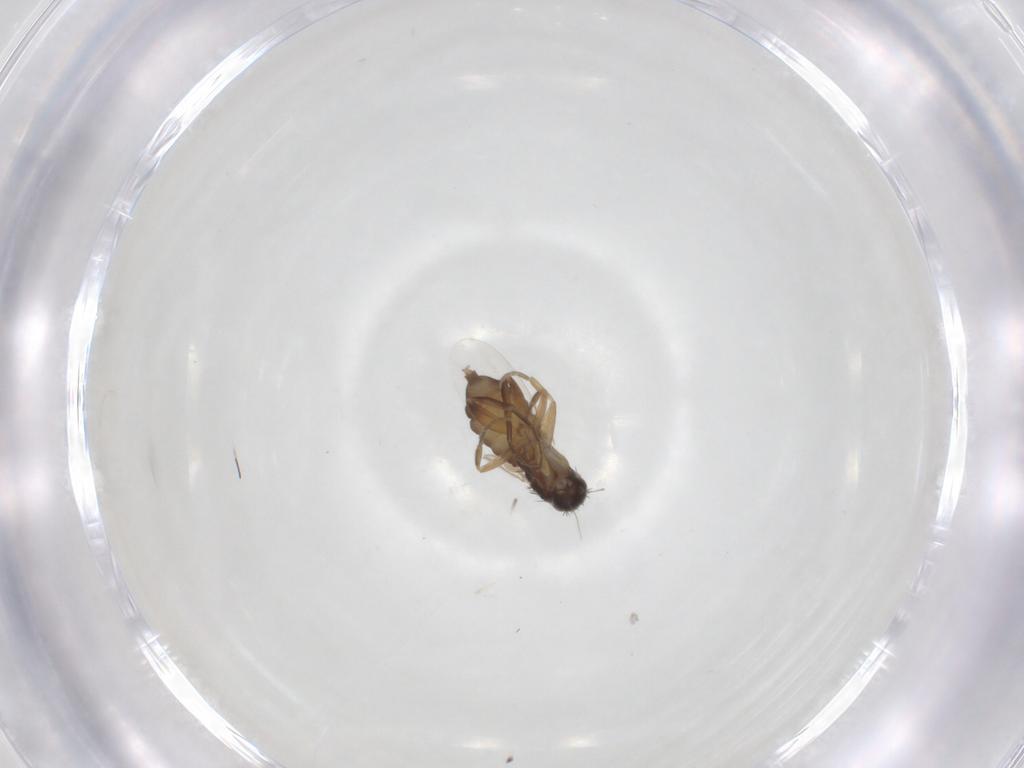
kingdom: Animalia
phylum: Arthropoda
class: Insecta
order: Diptera
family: Phoridae
